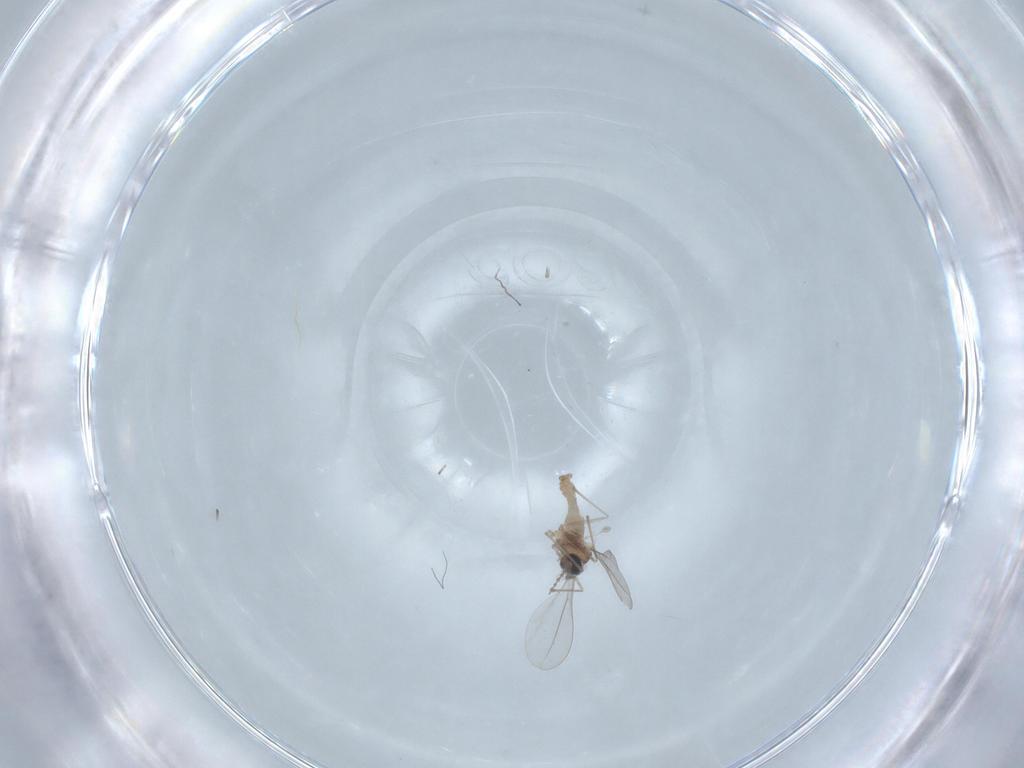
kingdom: Animalia
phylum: Arthropoda
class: Insecta
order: Diptera
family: Cecidomyiidae
